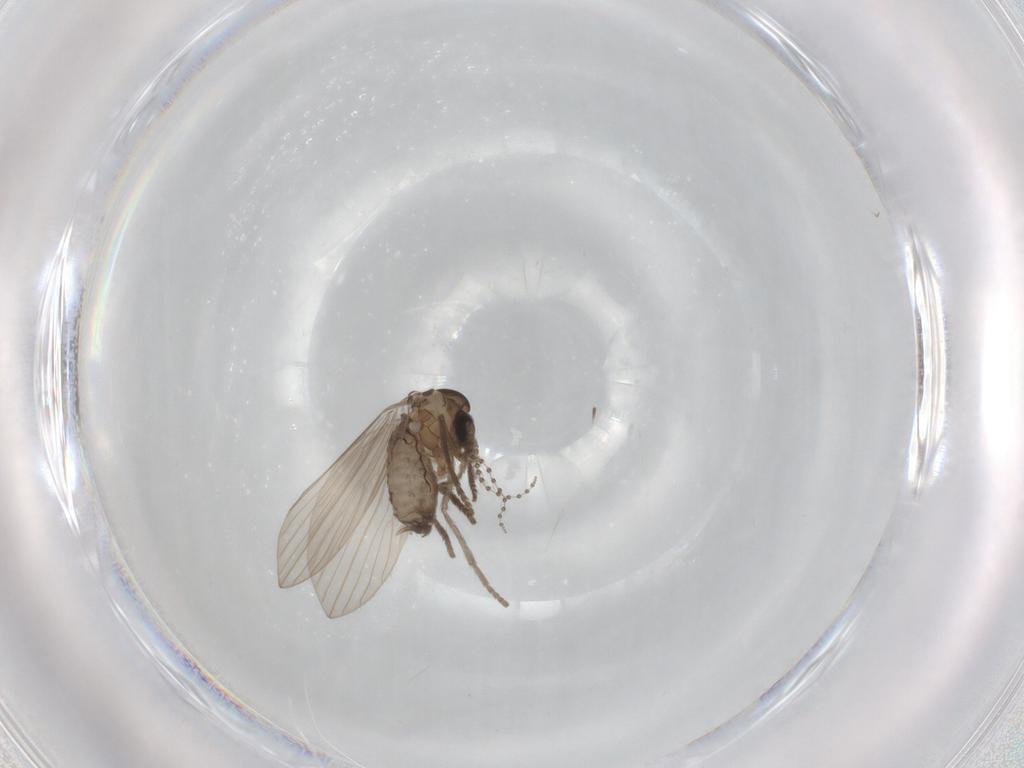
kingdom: Animalia
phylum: Arthropoda
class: Insecta
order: Diptera
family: Psychodidae
